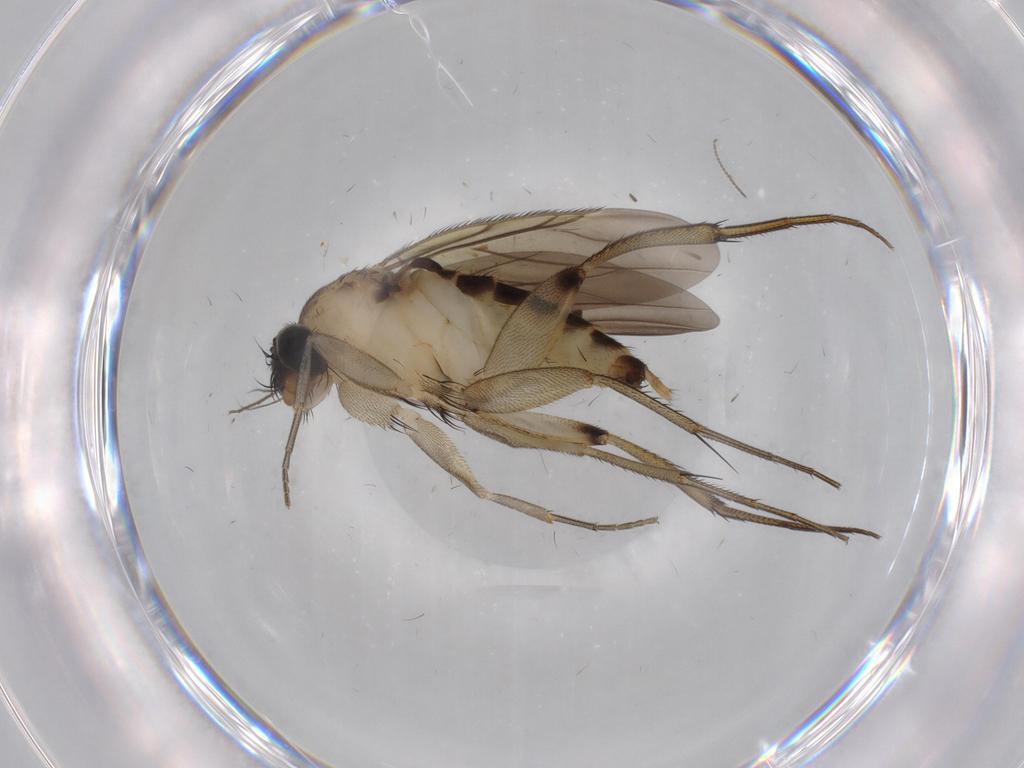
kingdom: Animalia
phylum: Arthropoda
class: Insecta
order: Diptera
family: Phoridae
